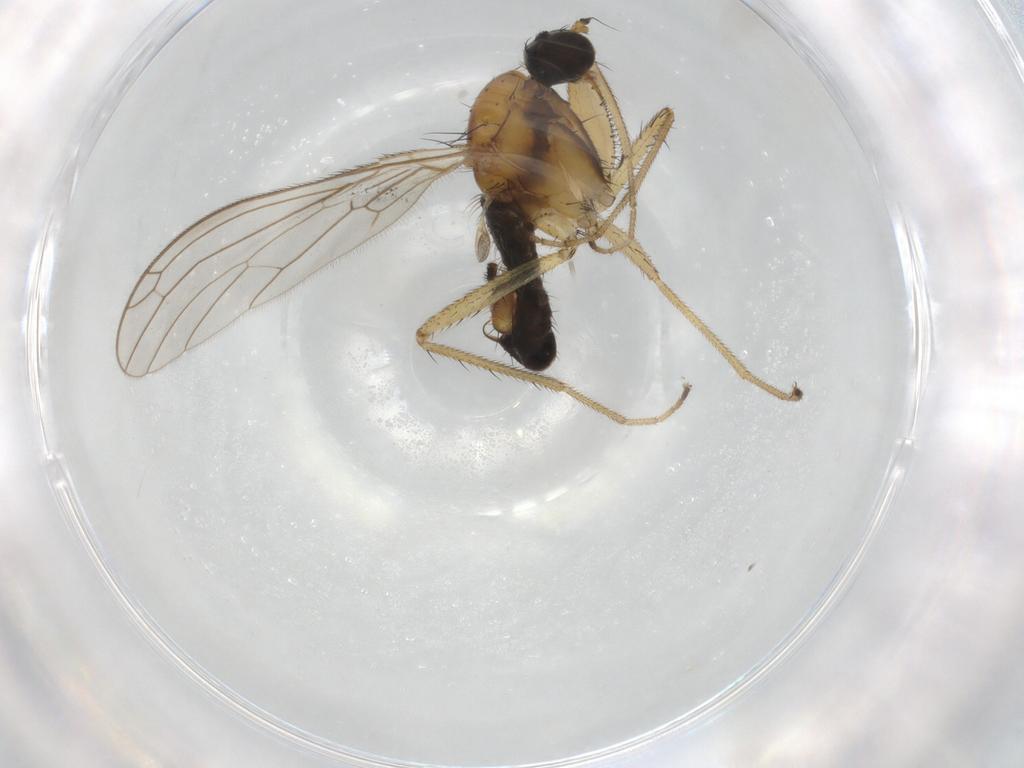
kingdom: Animalia
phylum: Arthropoda
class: Insecta
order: Diptera
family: Empididae
